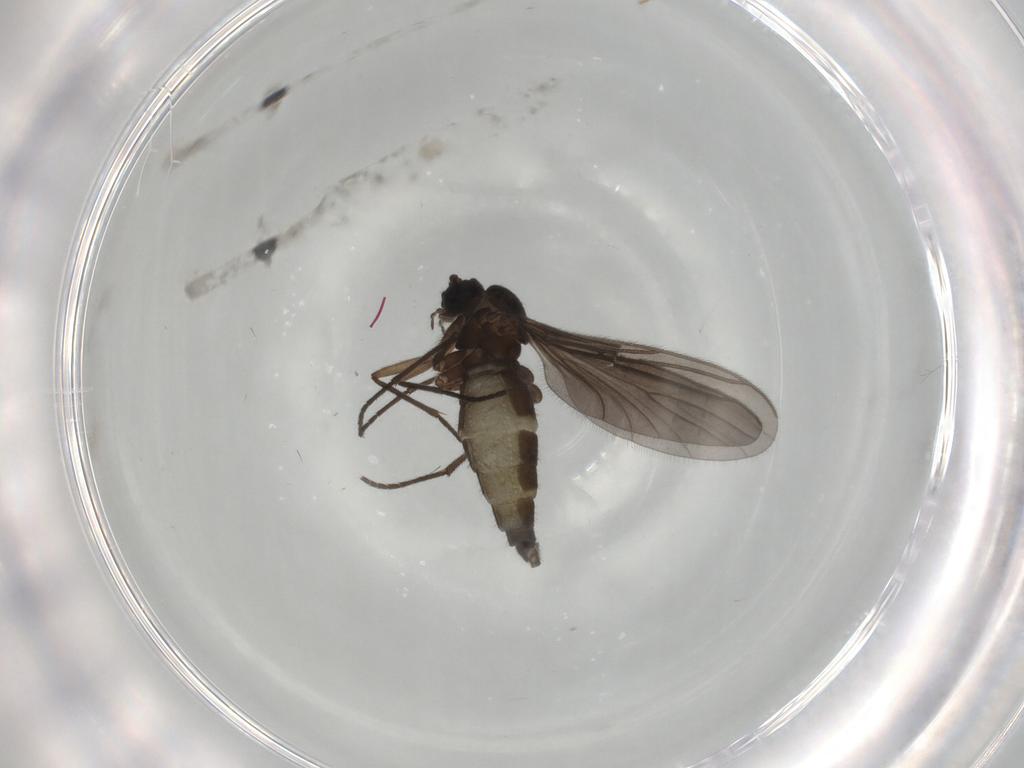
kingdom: Animalia
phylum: Arthropoda
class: Insecta
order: Diptera
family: Sciaridae
